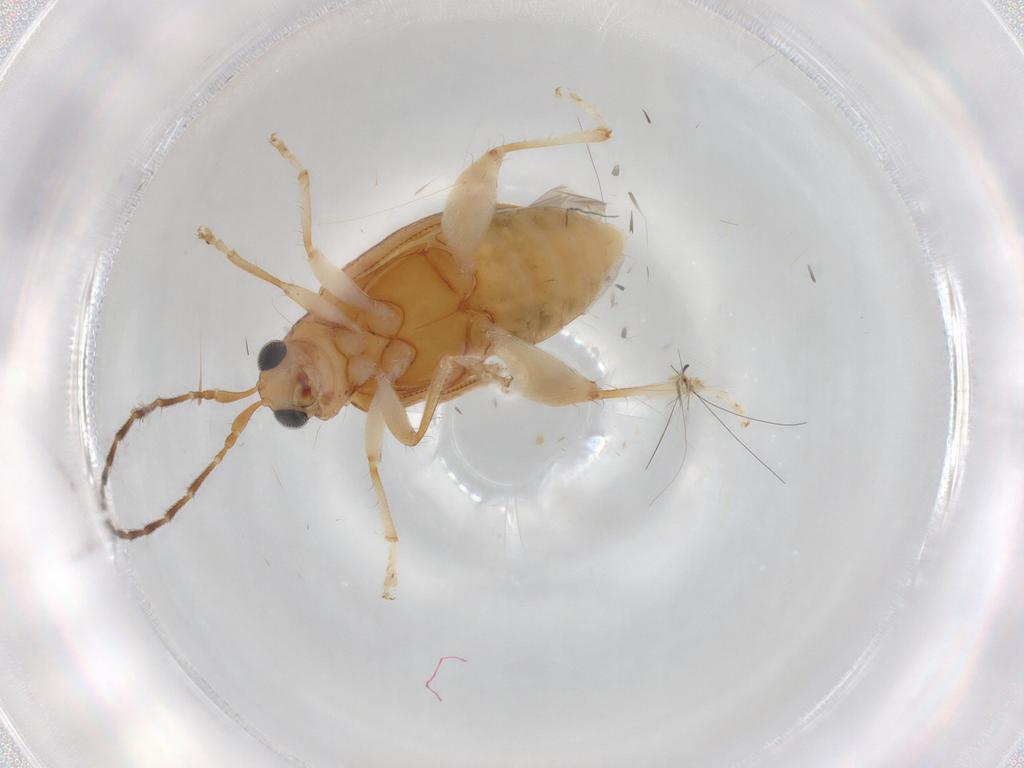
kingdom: Animalia
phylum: Arthropoda
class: Insecta
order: Coleoptera
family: Chrysomelidae
